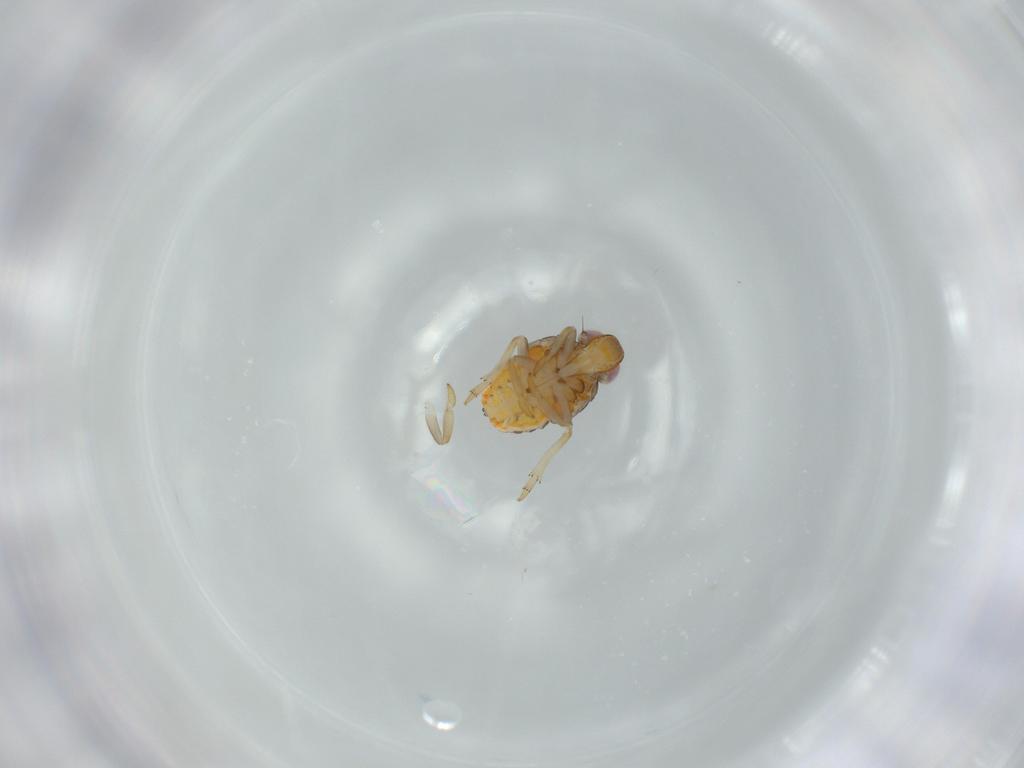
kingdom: Animalia
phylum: Arthropoda
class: Insecta
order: Hemiptera
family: Issidae
